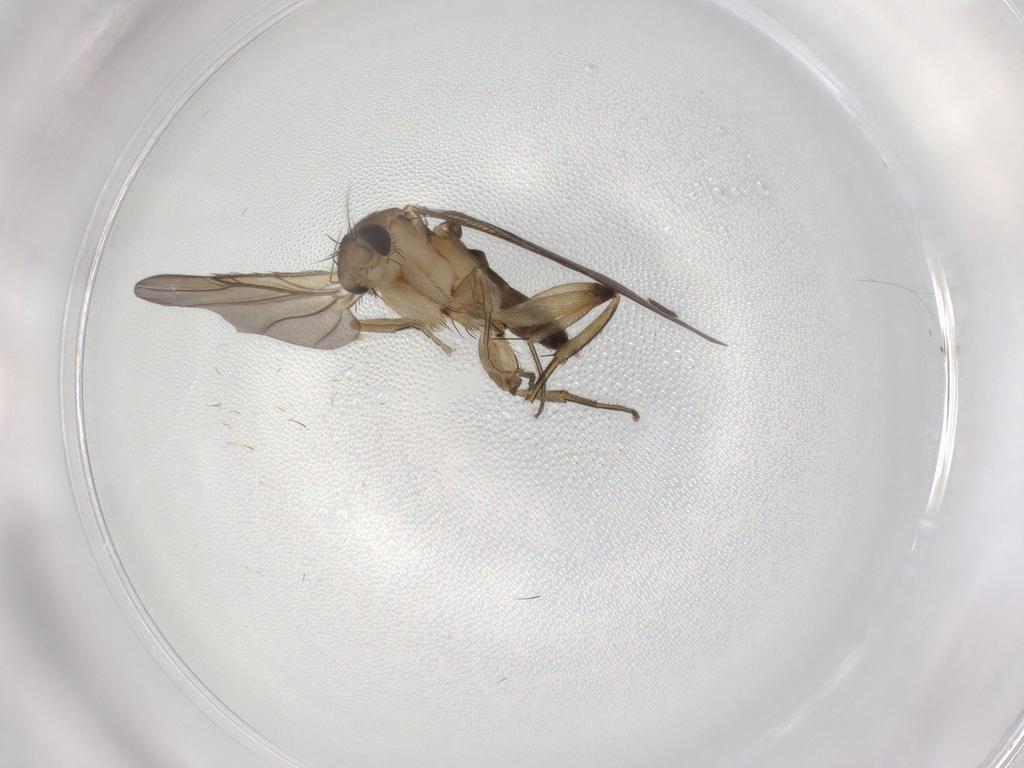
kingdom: Animalia
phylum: Arthropoda
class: Insecta
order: Diptera
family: Phoridae
